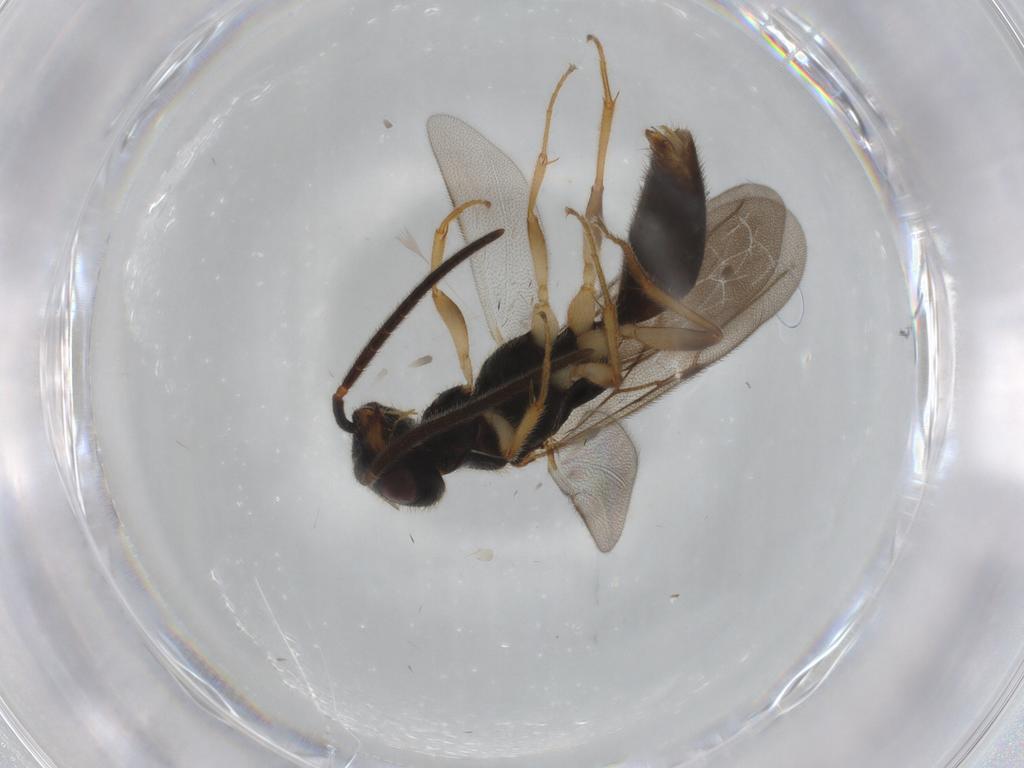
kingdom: Animalia
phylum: Arthropoda
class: Insecta
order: Hymenoptera
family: Bethylidae
